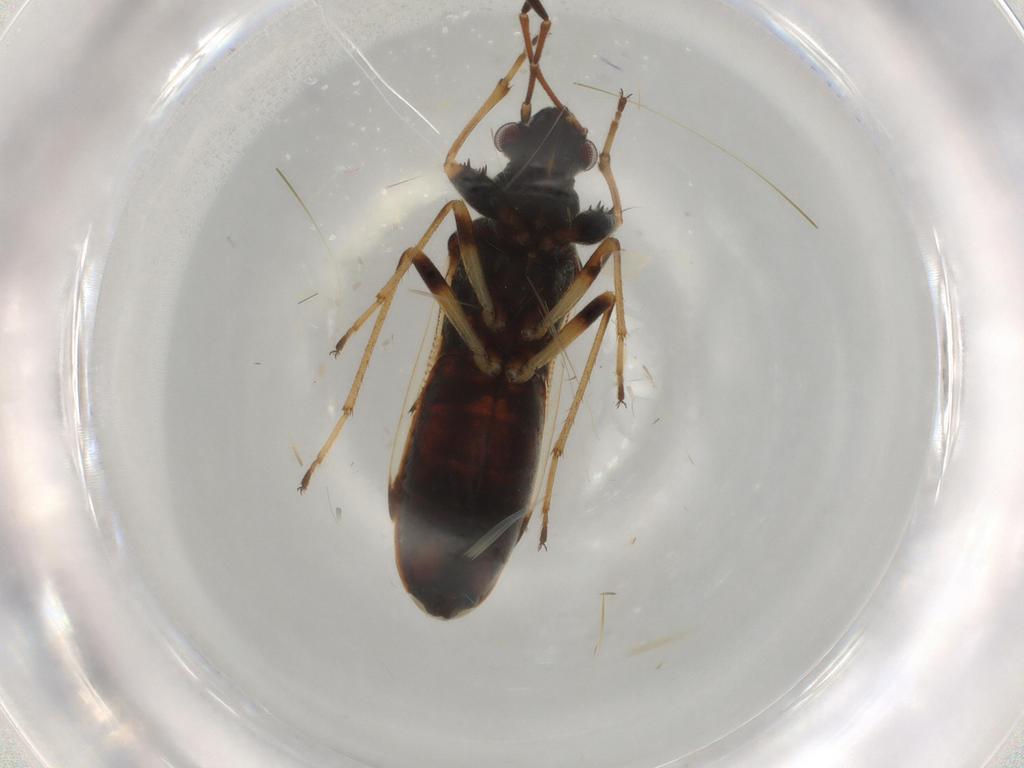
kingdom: Animalia
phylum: Arthropoda
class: Insecta
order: Hemiptera
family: Rhyparochromidae
